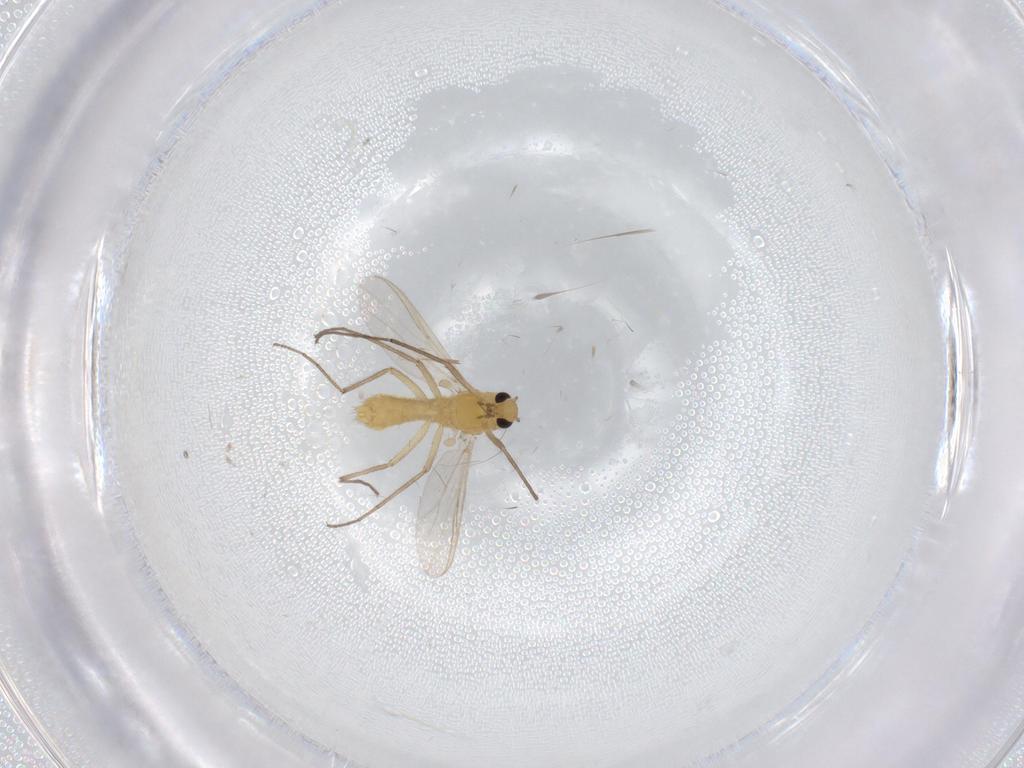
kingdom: Animalia
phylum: Arthropoda
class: Insecta
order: Diptera
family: Chironomidae
